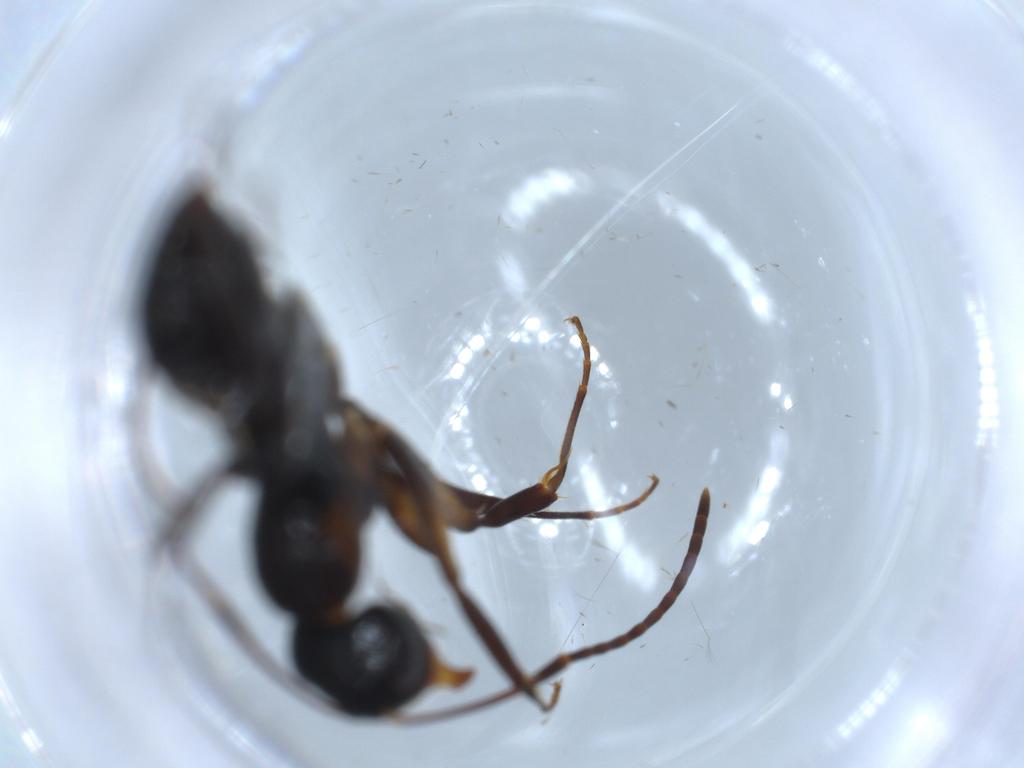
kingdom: Animalia
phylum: Arthropoda
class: Insecta
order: Hymenoptera
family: Formicidae
